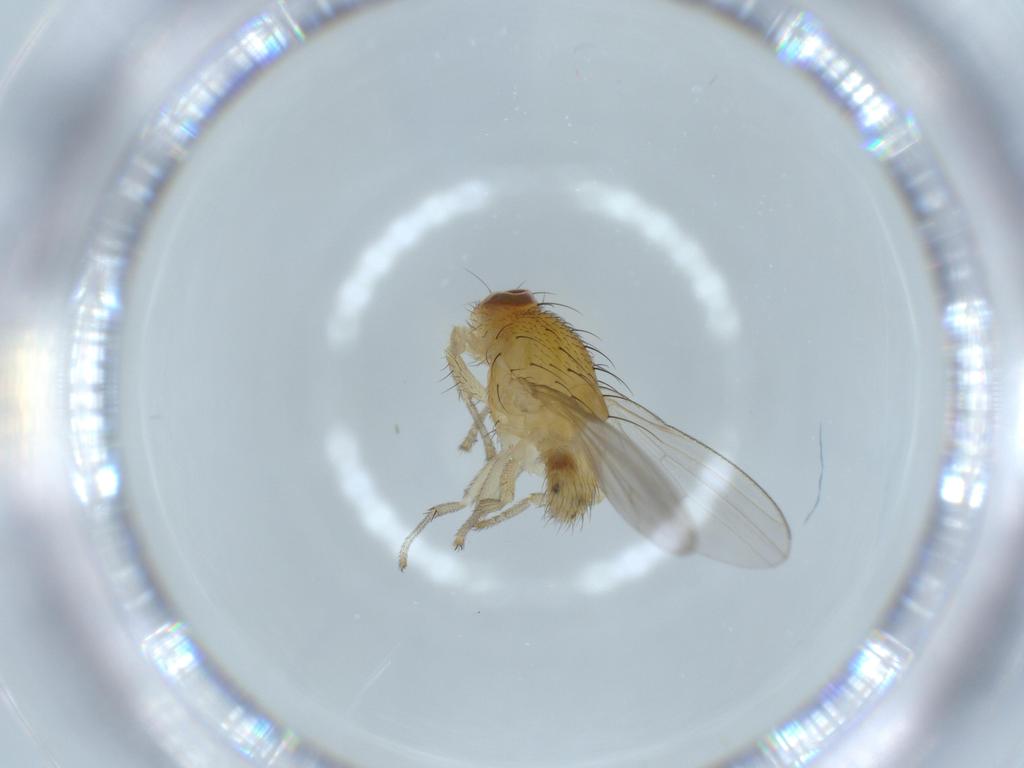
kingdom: Animalia
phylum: Arthropoda
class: Insecta
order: Diptera
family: Lauxaniidae
